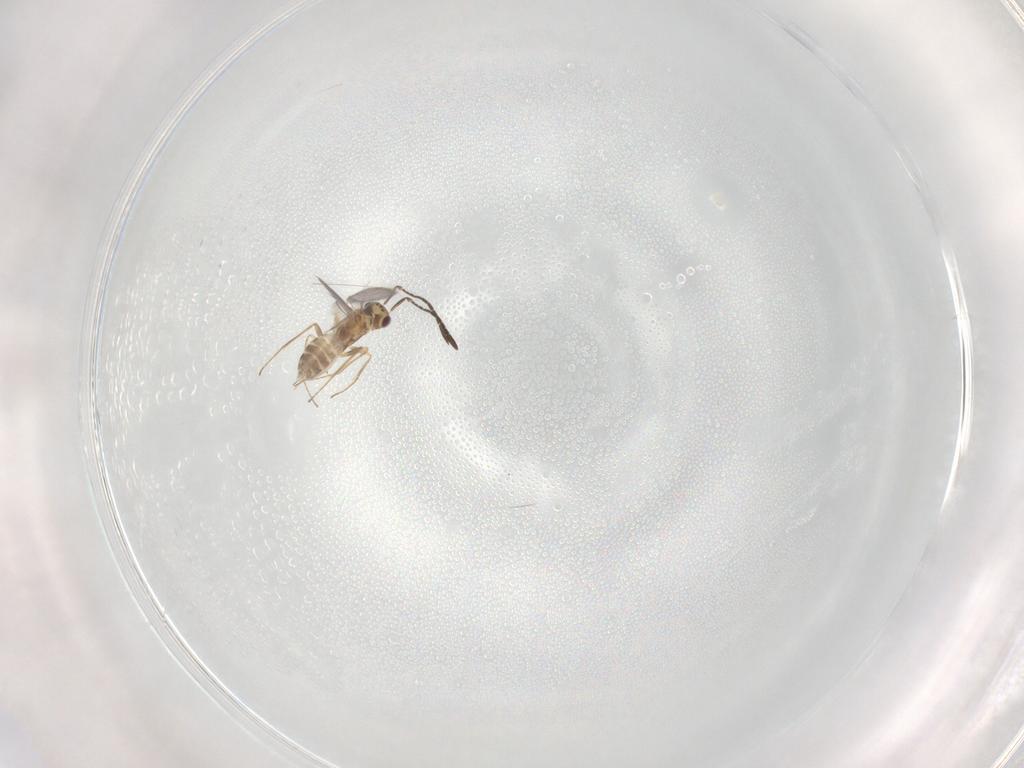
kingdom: Animalia
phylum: Arthropoda
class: Insecta
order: Hymenoptera
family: Mymaridae
